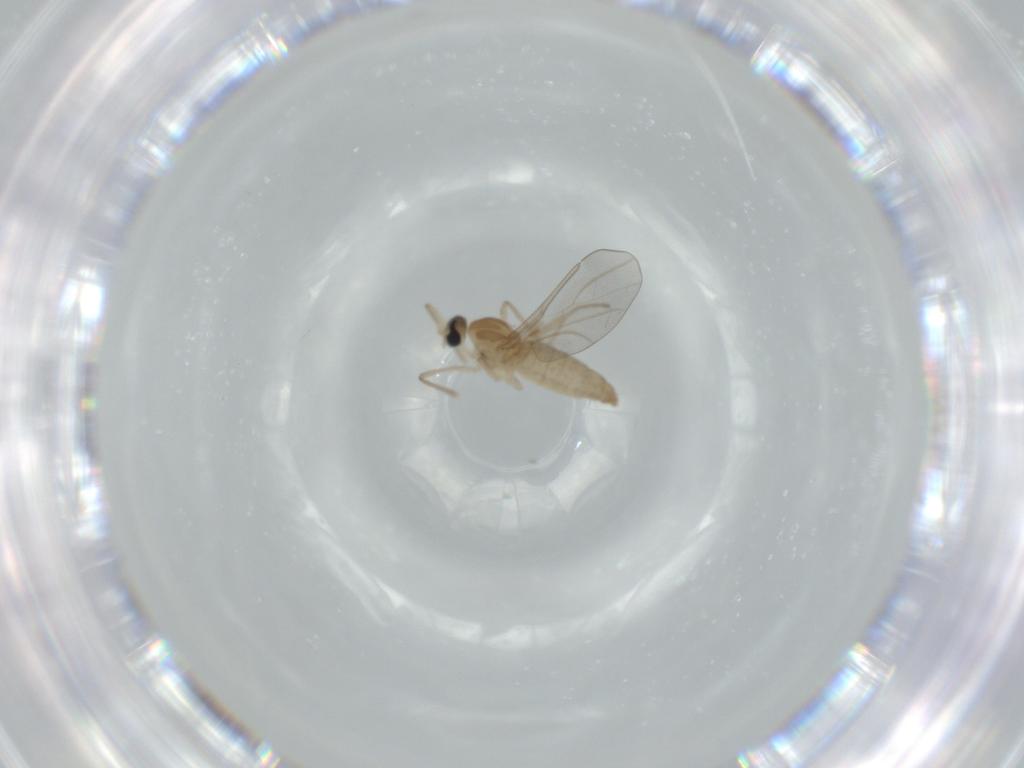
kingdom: Animalia
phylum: Arthropoda
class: Insecta
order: Diptera
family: Cecidomyiidae
